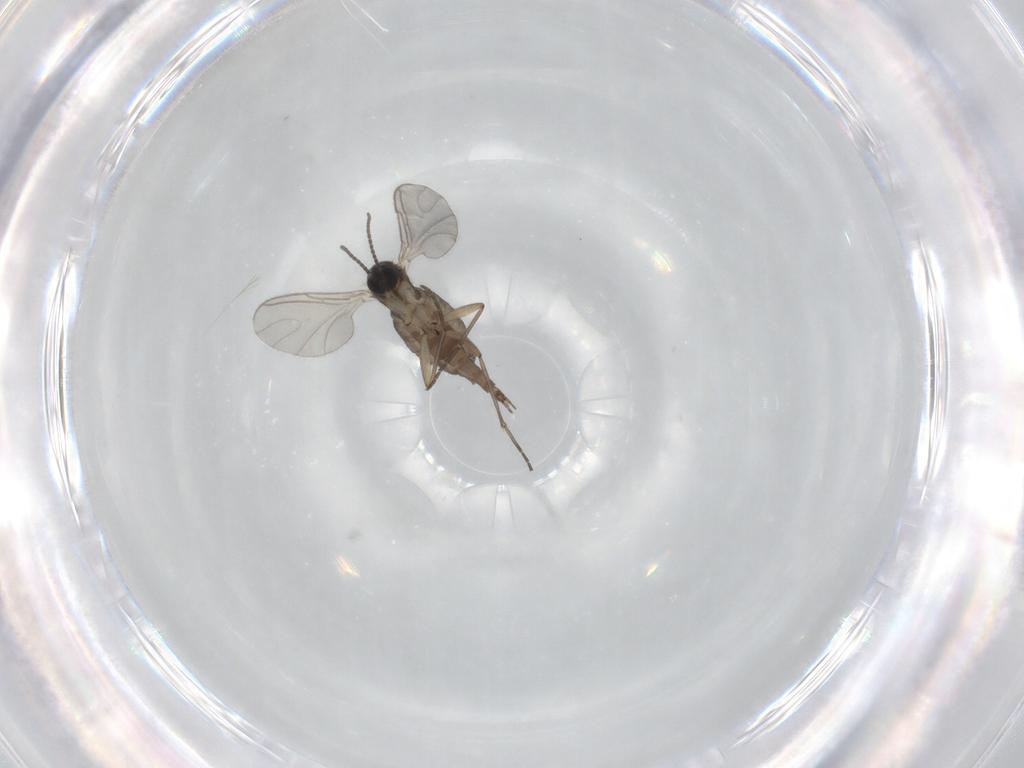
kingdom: Animalia
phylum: Arthropoda
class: Insecta
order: Diptera
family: Sciaridae
